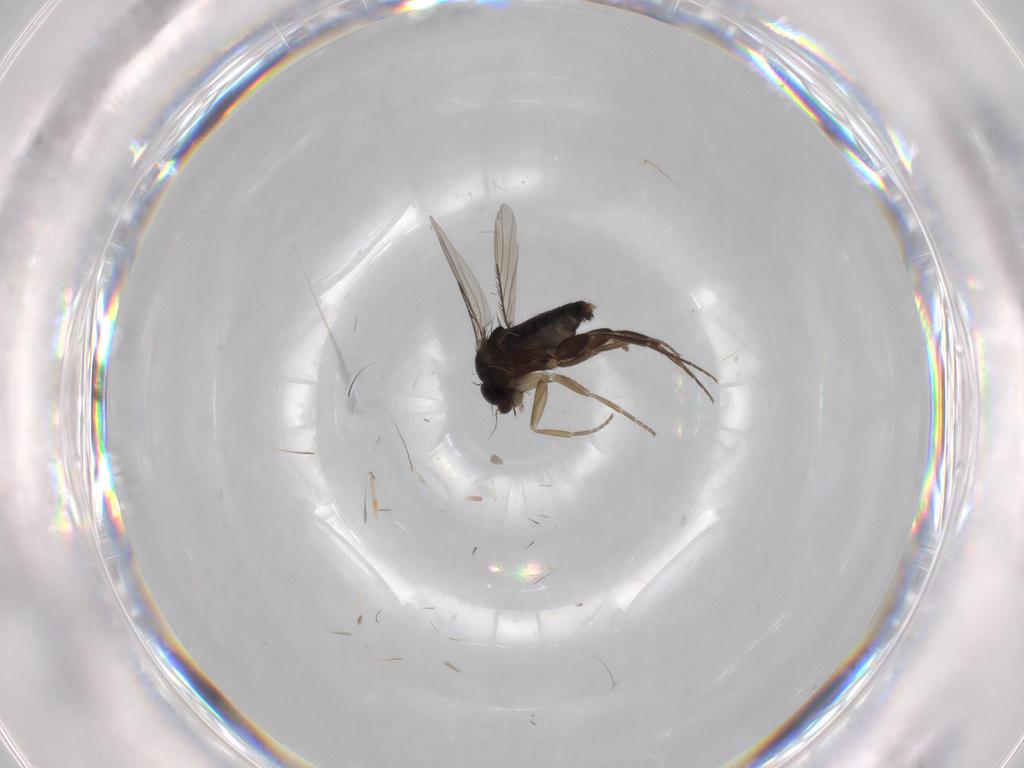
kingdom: Animalia
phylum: Arthropoda
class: Insecta
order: Diptera
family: Phoridae
